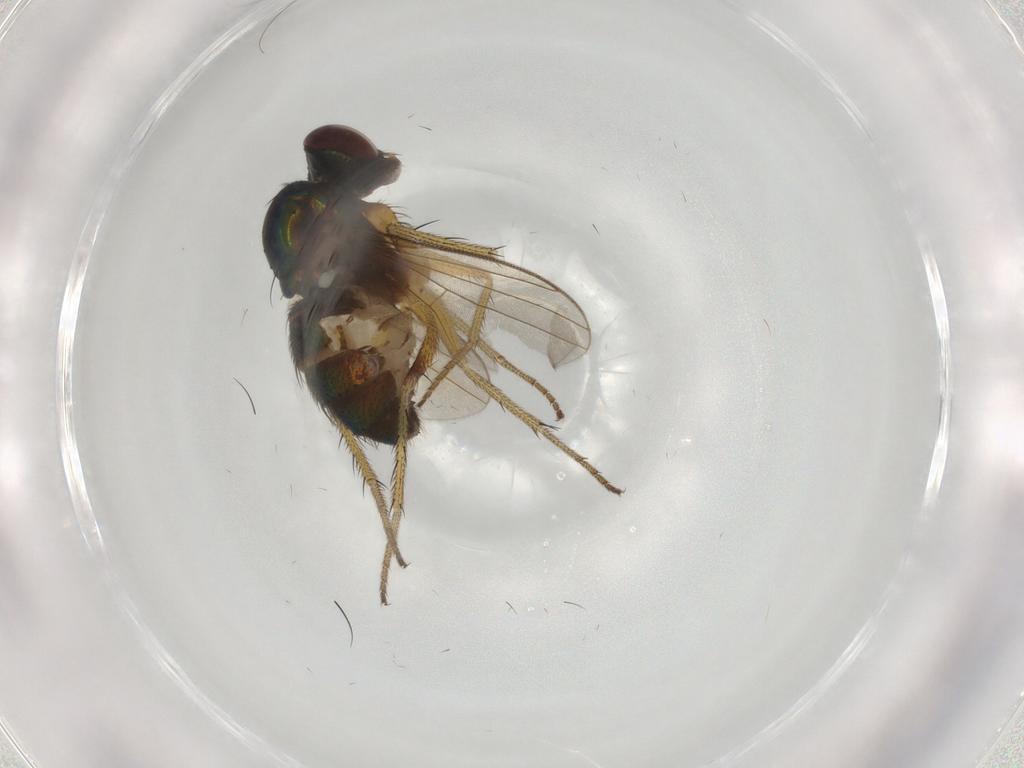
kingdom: Animalia
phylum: Arthropoda
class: Insecta
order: Diptera
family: Dolichopodidae
